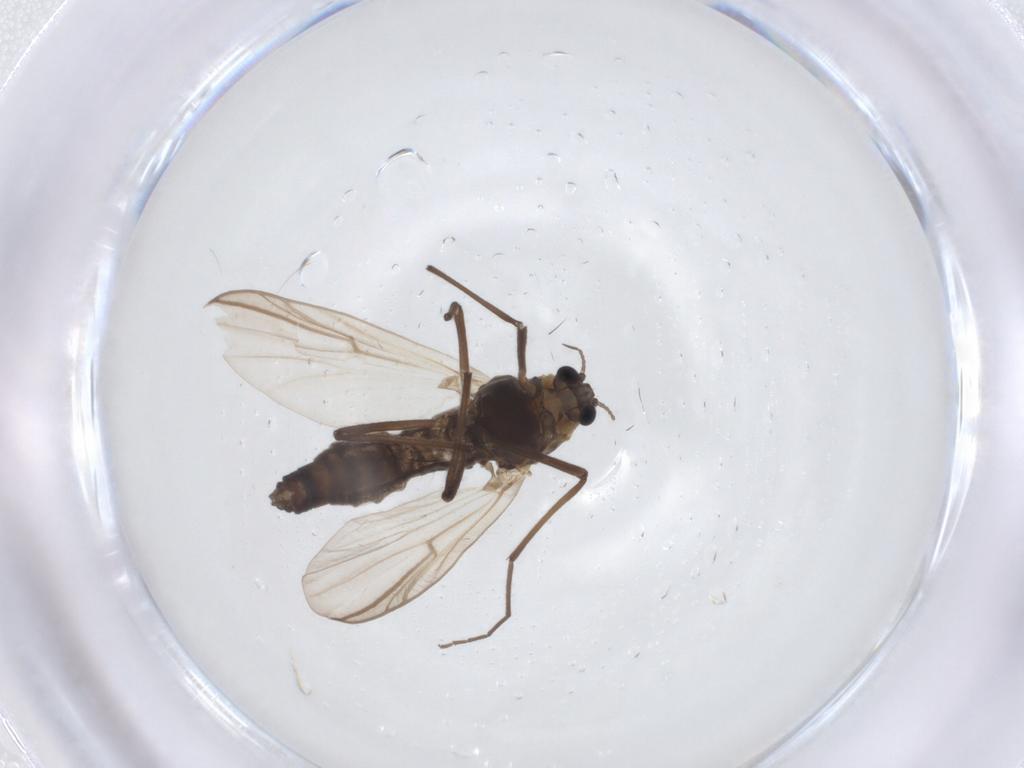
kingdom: Animalia
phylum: Arthropoda
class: Insecta
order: Diptera
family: Chironomidae
